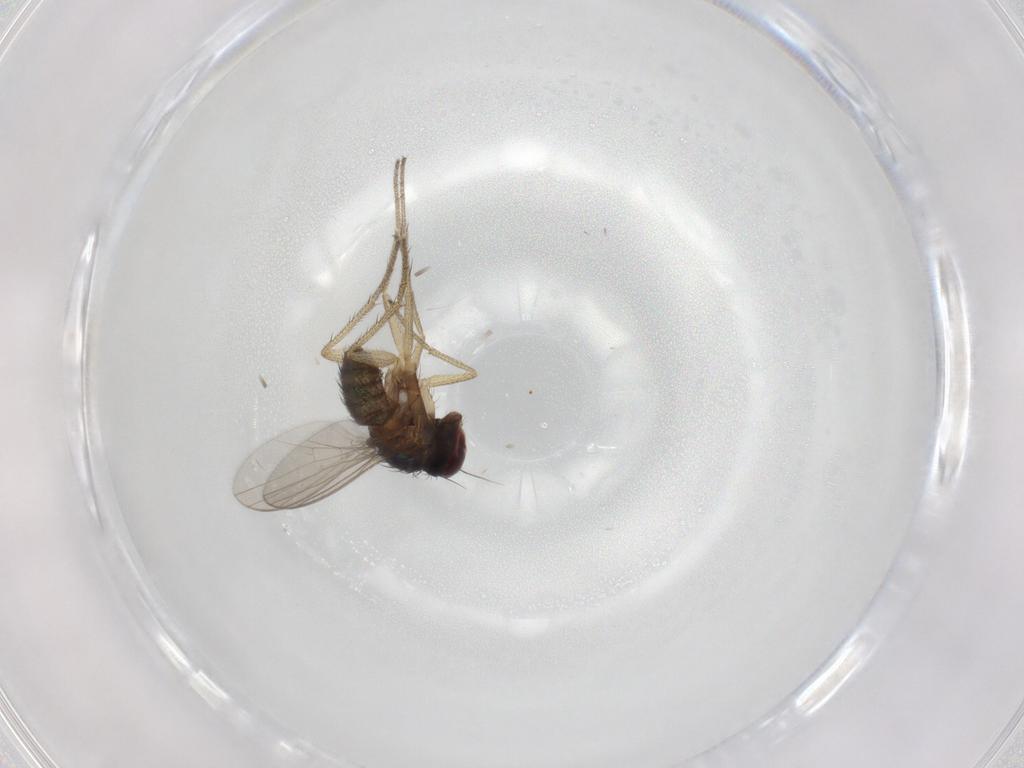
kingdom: Animalia
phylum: Arthropoda
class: Insecta
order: Diptera
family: Dolichopodidae
